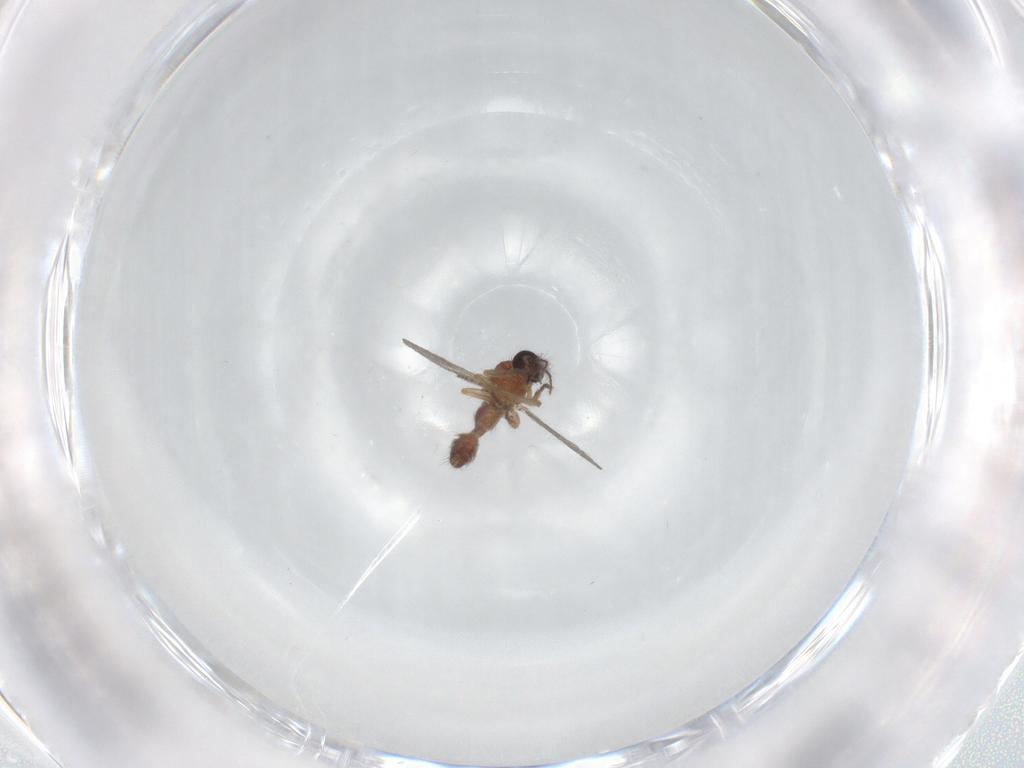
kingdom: Animalia
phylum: Arthropoda
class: Insecta
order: Diptera
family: Ceratopogonidae
